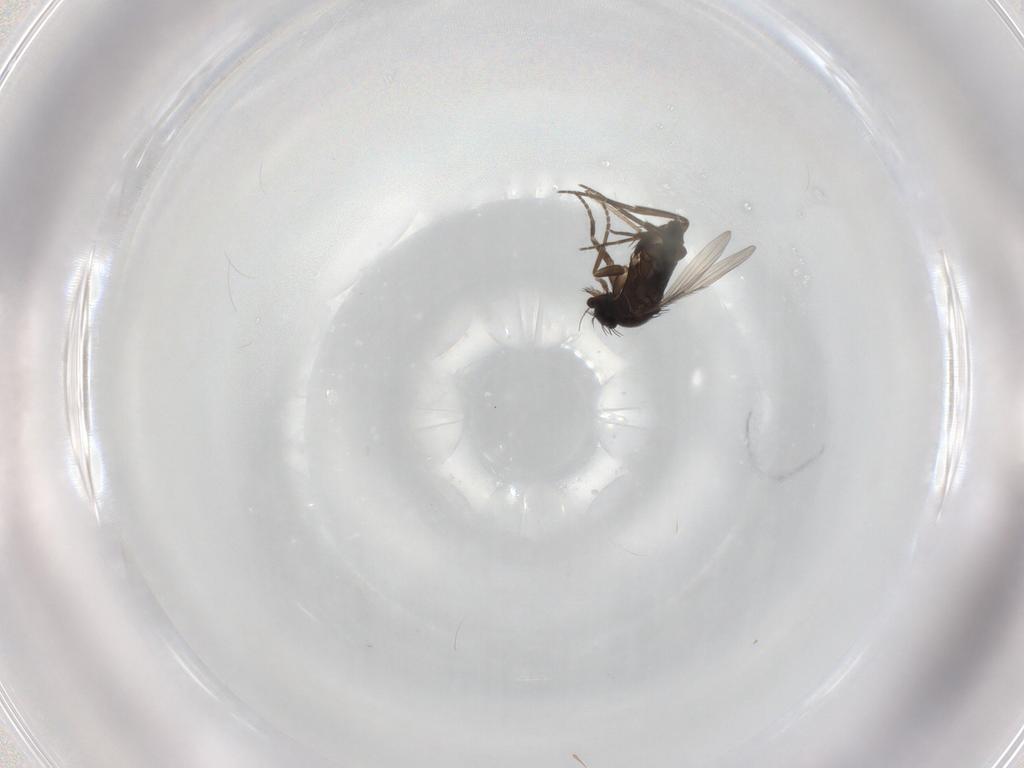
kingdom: Animalia
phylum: Arthropoda
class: Insecta
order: Diptera
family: Phoridae
